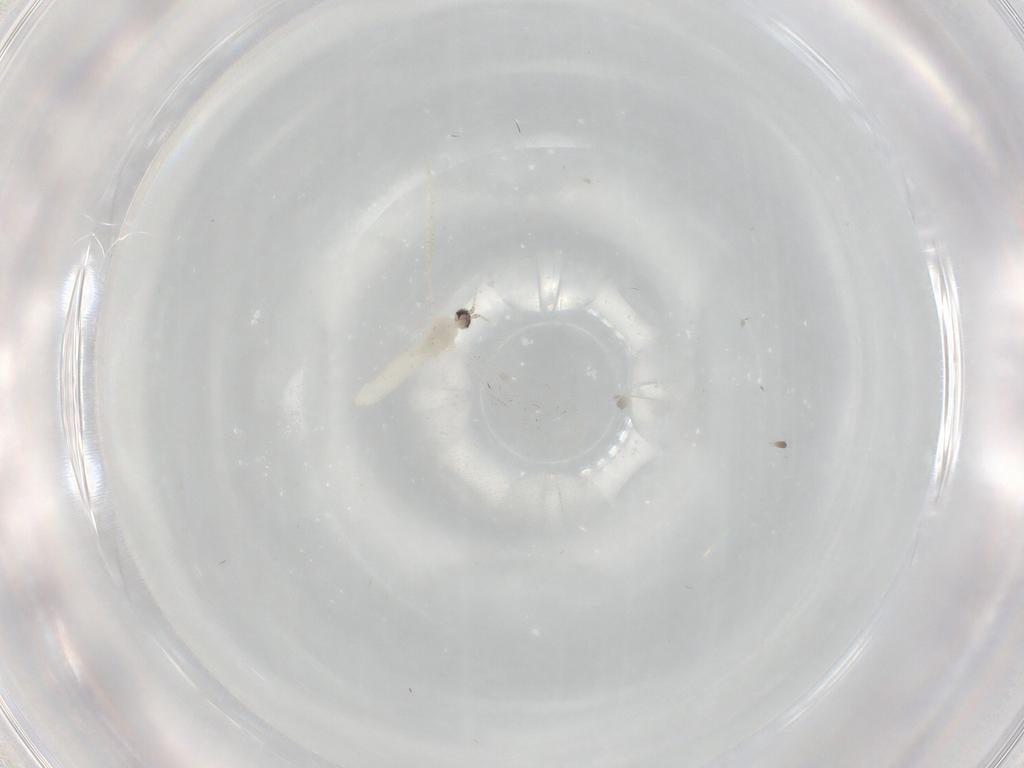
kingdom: Animalia
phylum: Arthropoda
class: Insecta
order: Diptera
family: Cecidomyiidae
